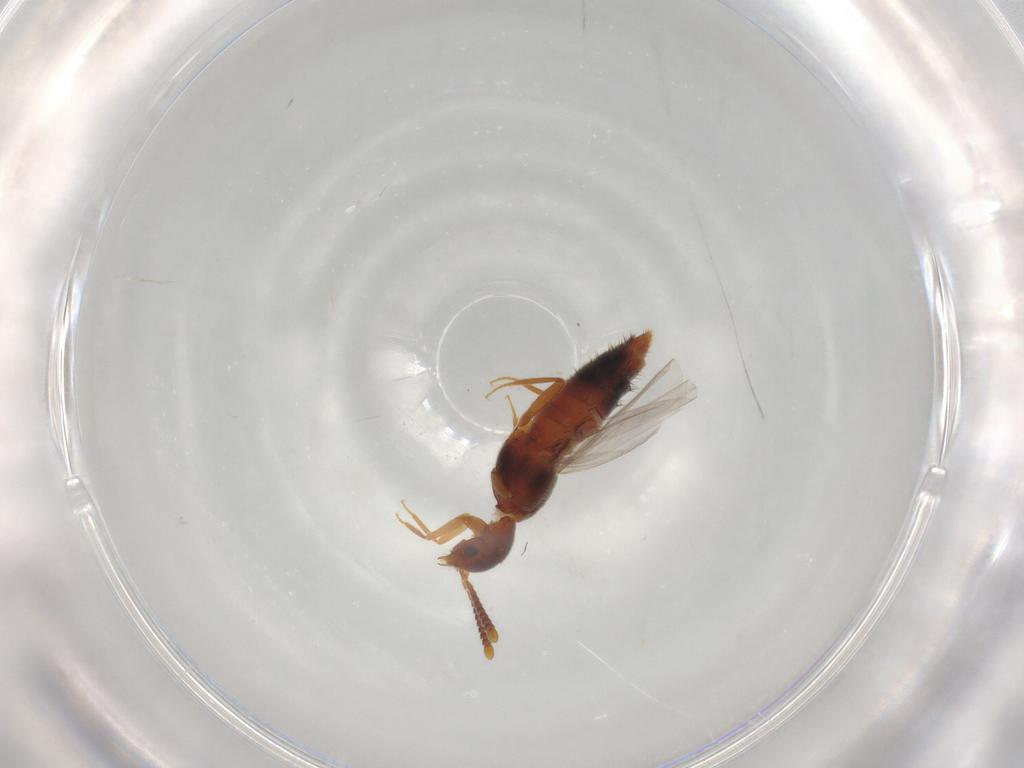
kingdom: Animalia
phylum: Arthropoda
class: Insecta
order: Coleoptera
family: Staphylinidae
